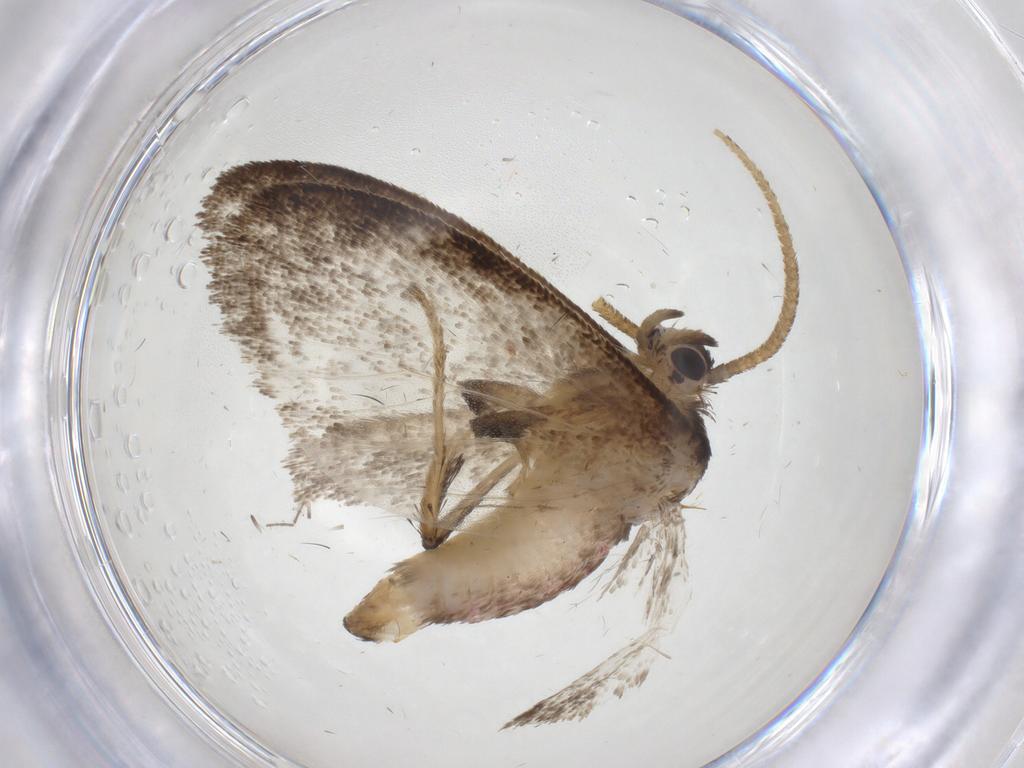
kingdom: Animalia
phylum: Arthropoda
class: Insecta
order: Lepidoptera
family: Limacodidae
